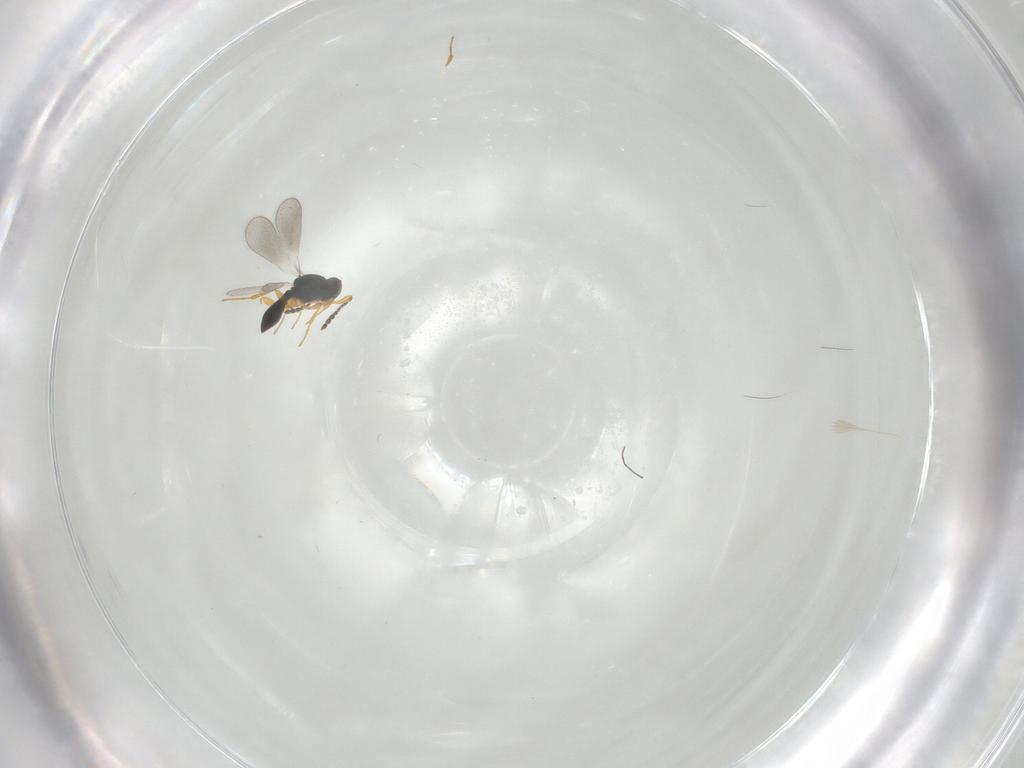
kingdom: Animalia
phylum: Arthropoda
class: Insecta
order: Hymenoptera
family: Platygastridae
